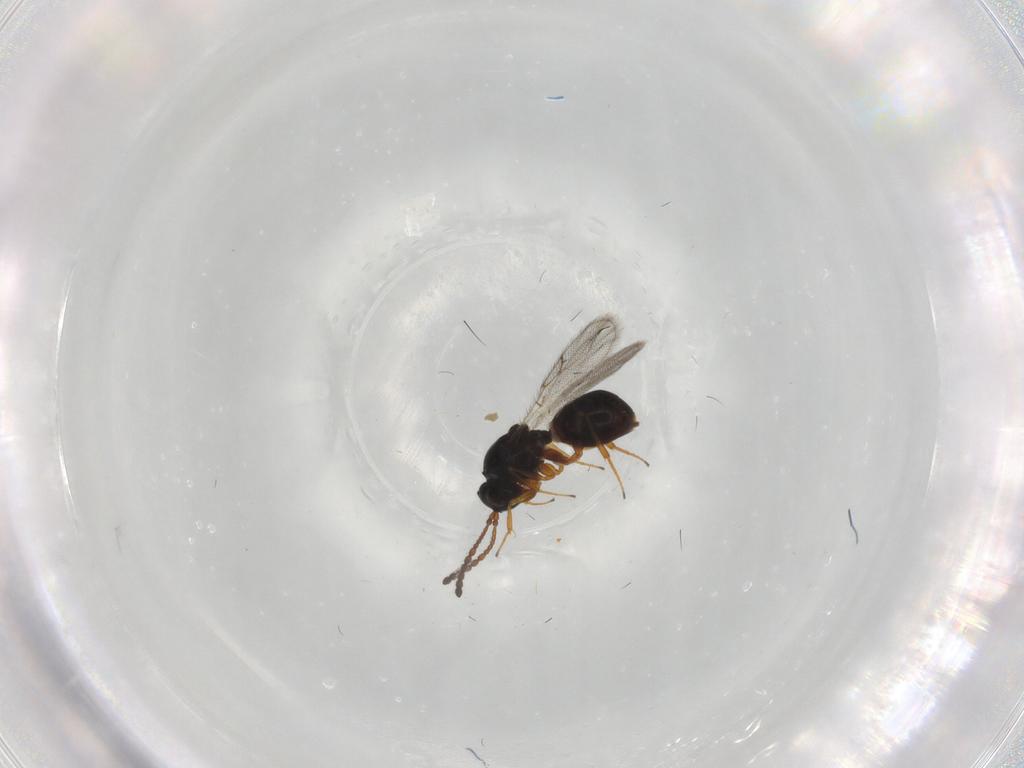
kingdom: Animalia
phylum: Arthropoda
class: Insecta
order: Hymenoptera
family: Figitidae
